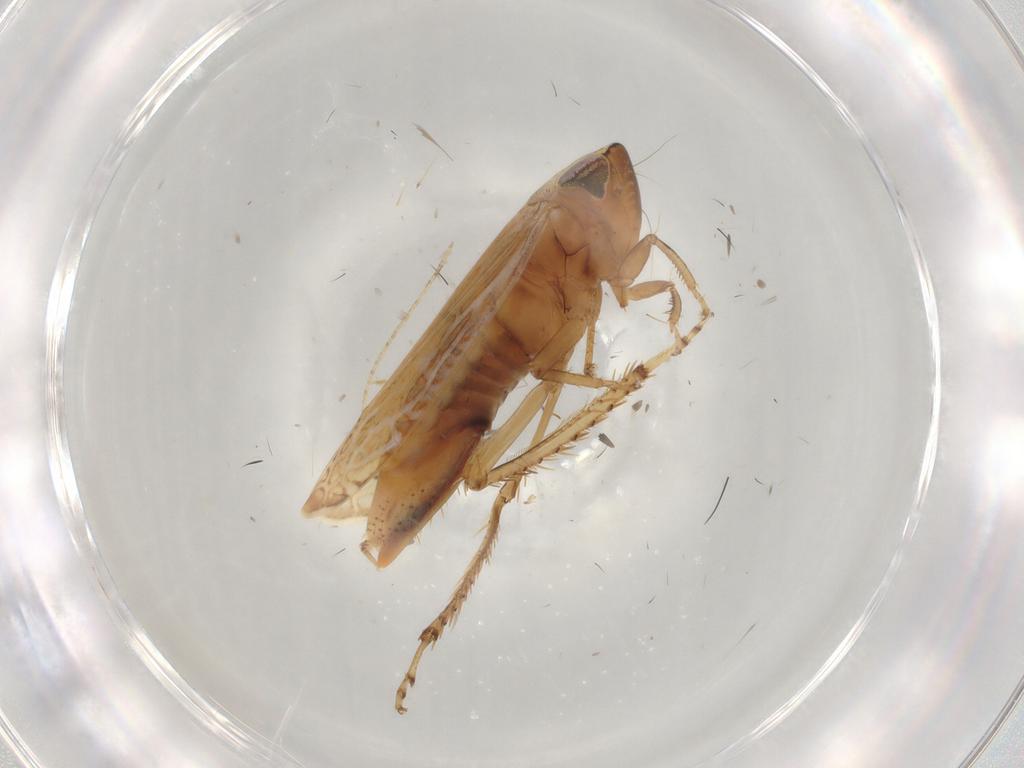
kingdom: Animalia
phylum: Arthropoda
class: Insecta
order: Hemiptera
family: Cicadellidae
